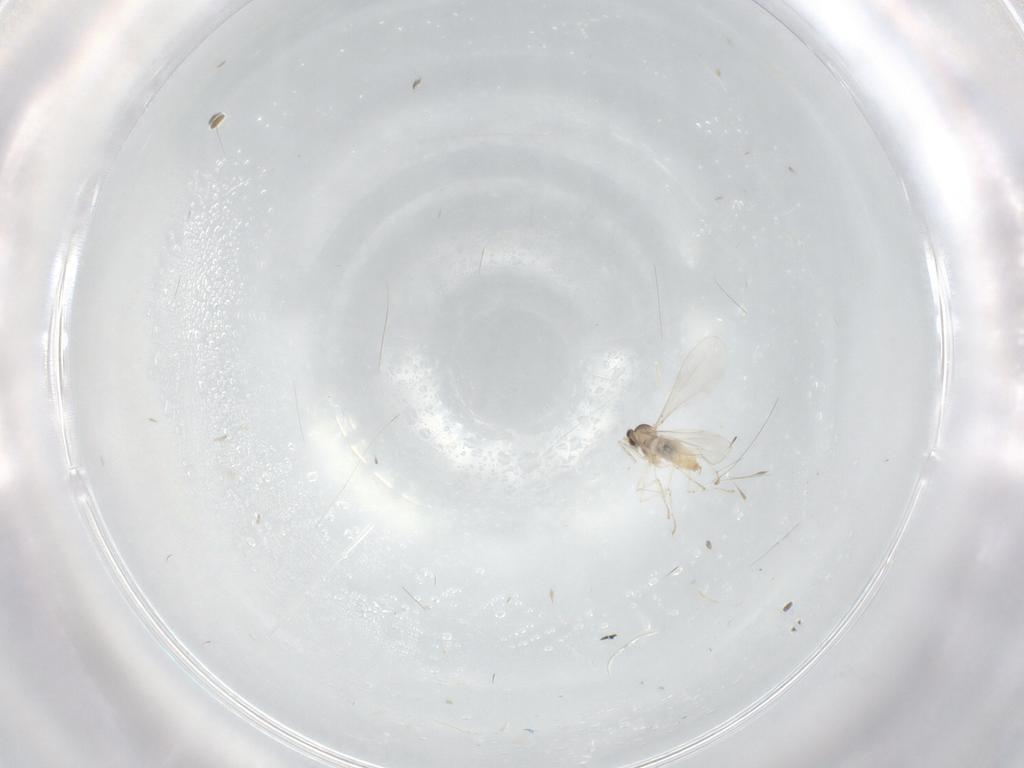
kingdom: Animalia
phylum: Arthropoda
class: Insecta
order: Diptera
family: Cecidomyiidae
